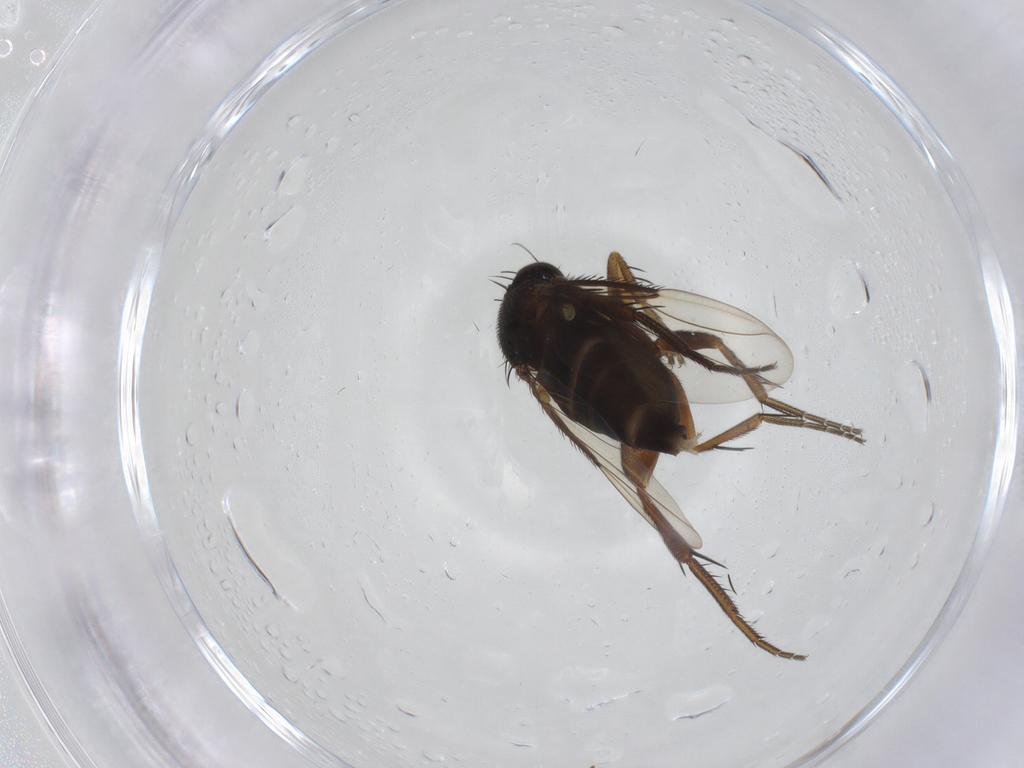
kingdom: Animalia
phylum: Arthropoda
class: Insecta
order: Diptera
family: Phoridae
